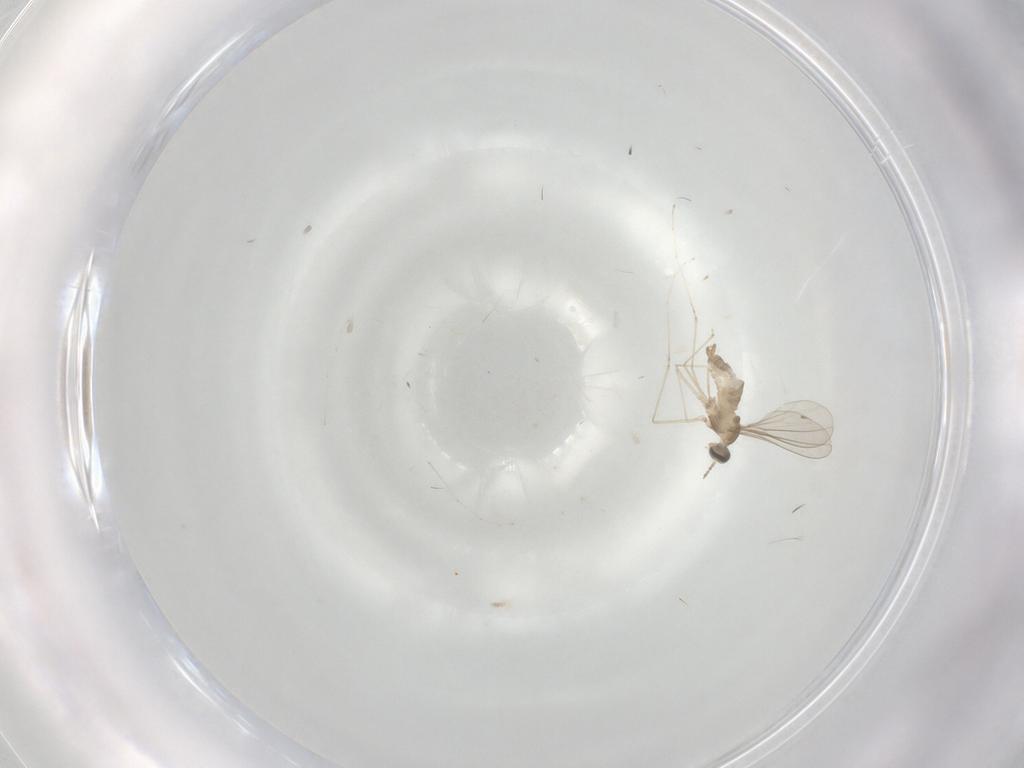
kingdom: Animalia
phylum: Arthropoda
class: Insecta
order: Diptera
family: Cecidomyiidae
